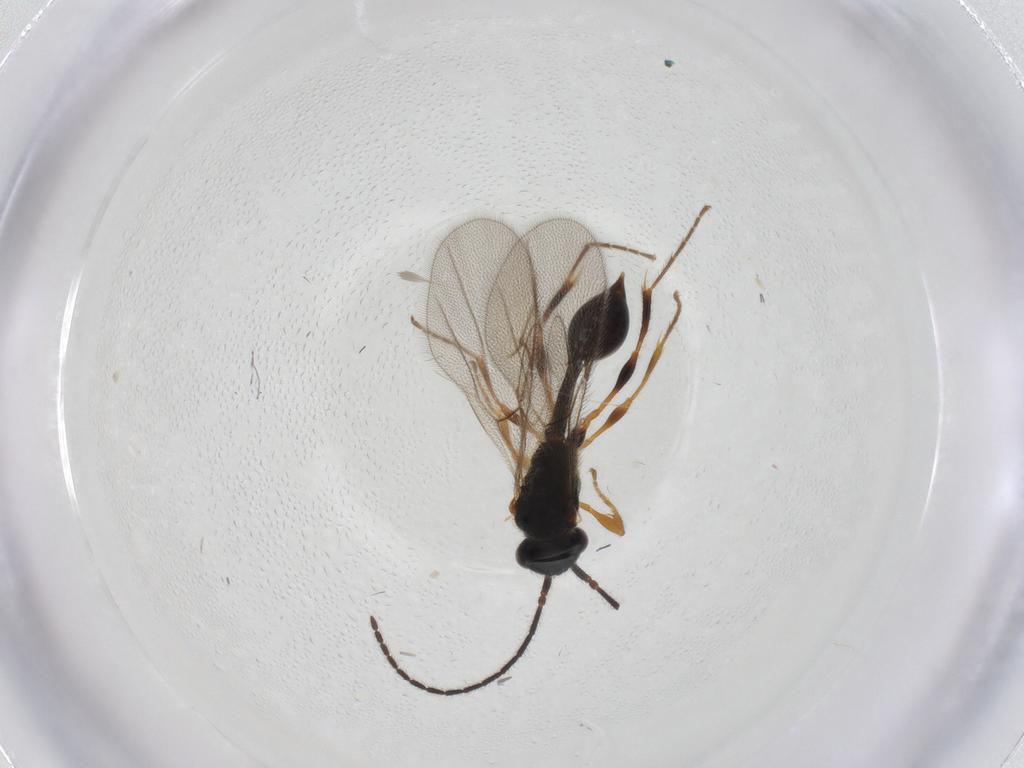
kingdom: Animalia
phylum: Arthropoda
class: Insecta
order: Hymenoptera
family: Diapriidae
